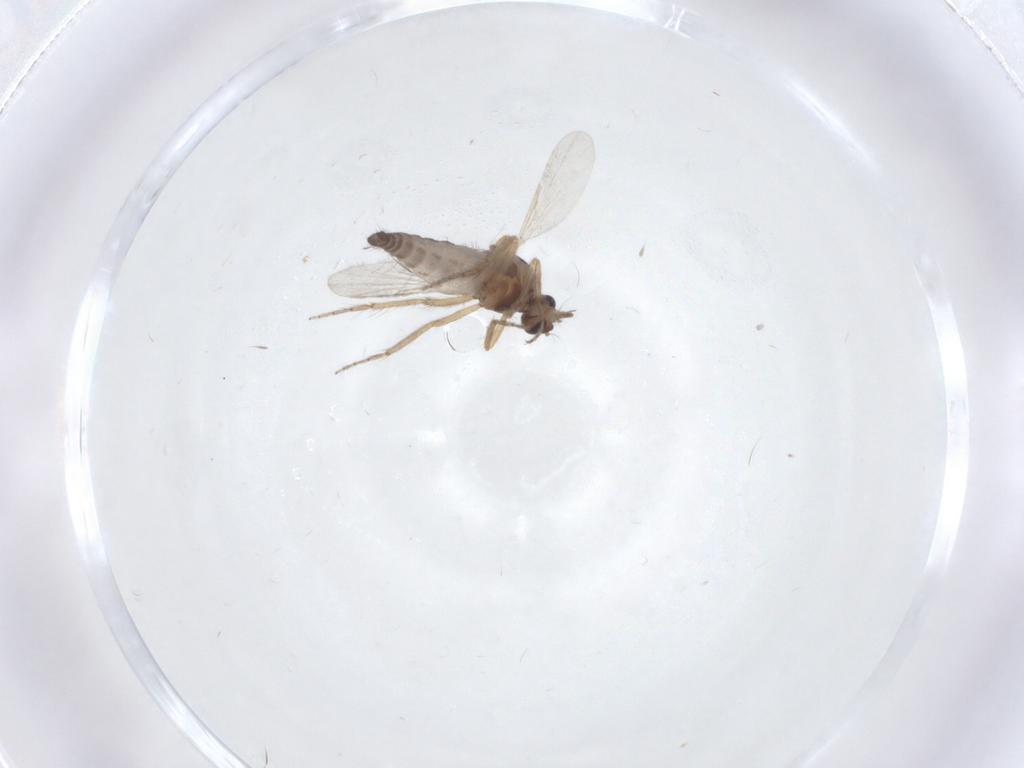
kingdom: Animalia
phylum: Arthropoda
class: Insecta
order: Diptera
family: Ceratopogonidae
